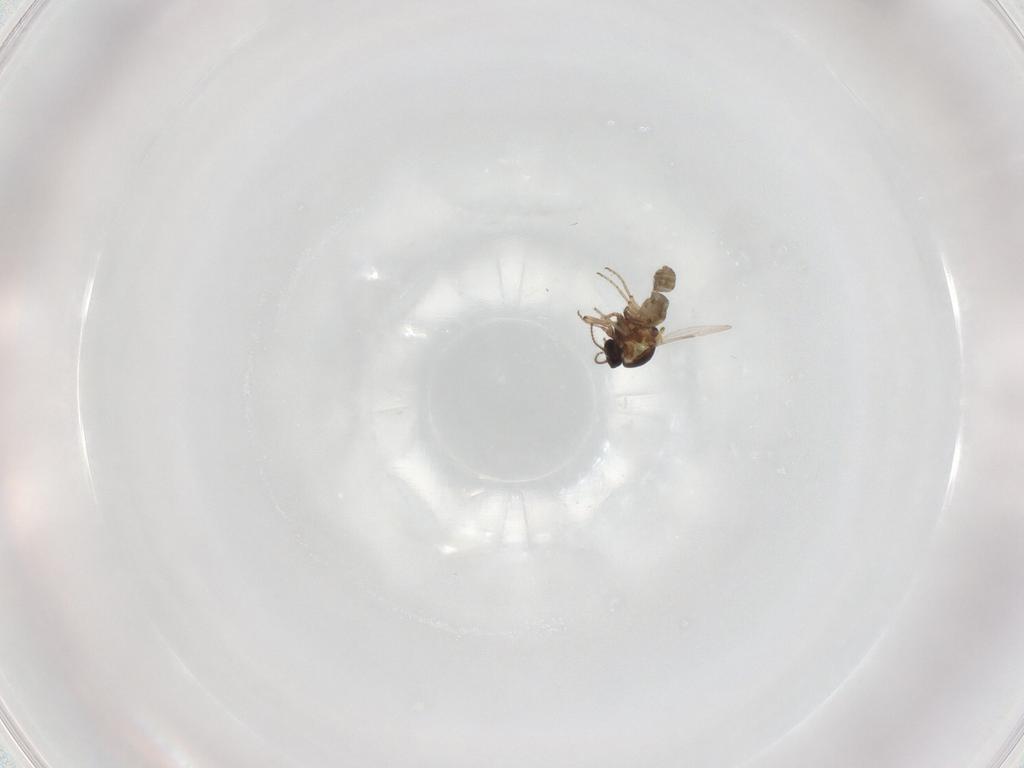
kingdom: Animalia
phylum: Arthropoda
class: Insecta
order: Diptera
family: Ceratopogonidae
